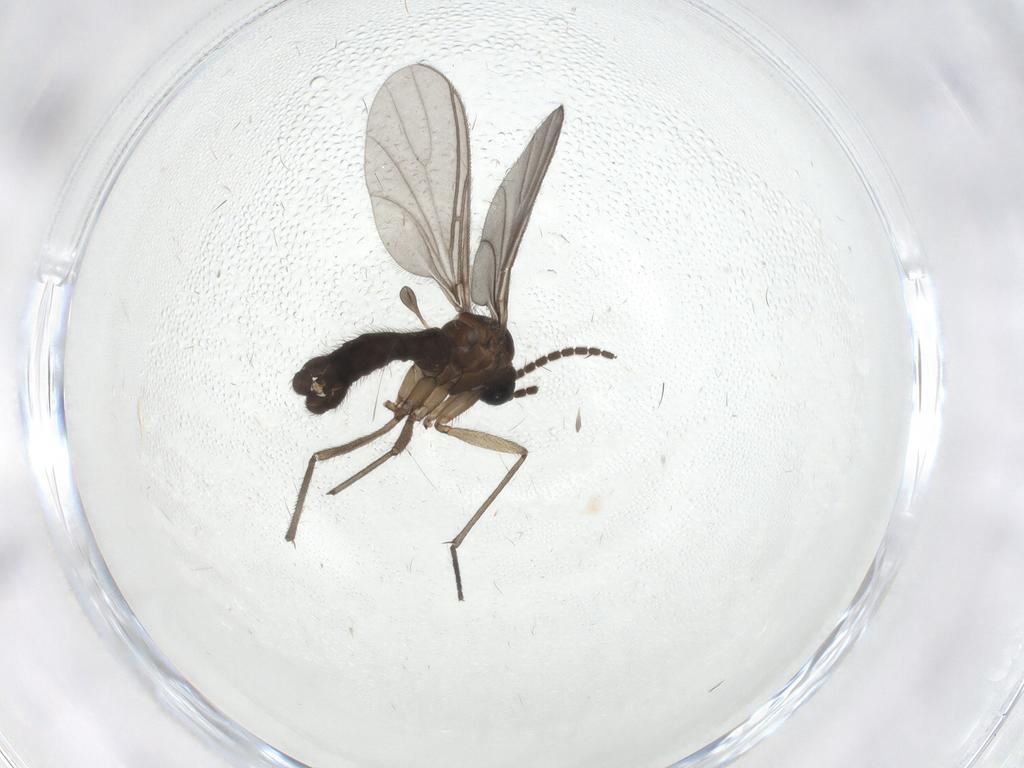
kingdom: Animalia
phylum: Arthropoda
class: Insecta
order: Diptera
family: Sciaridae
